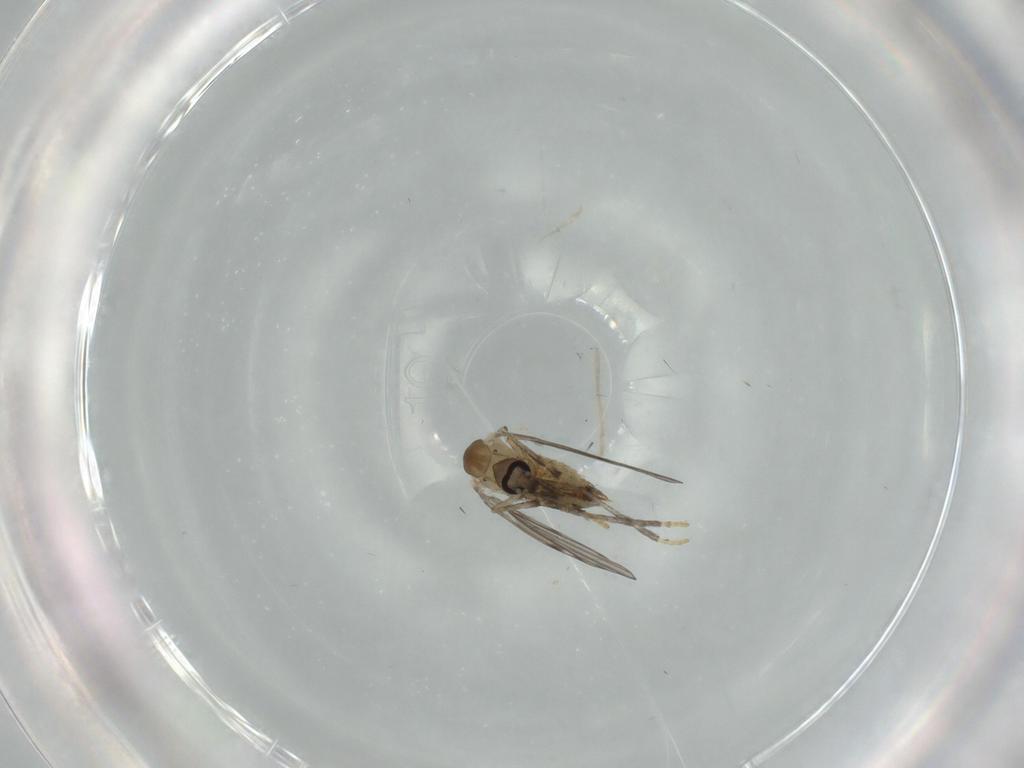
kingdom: Animalia
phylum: Arthropoda
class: Insecta
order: Diptera
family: Psychodidae
